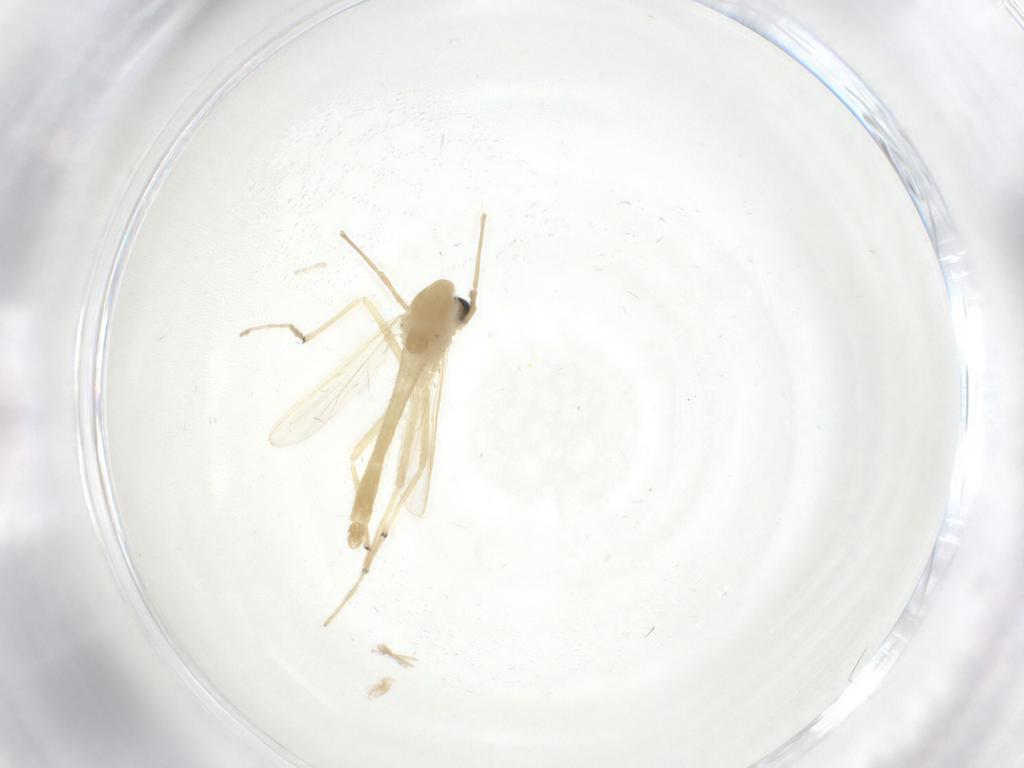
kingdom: Animalia
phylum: Arthropoda
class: Insecta
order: Diptera
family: Chironomidae
